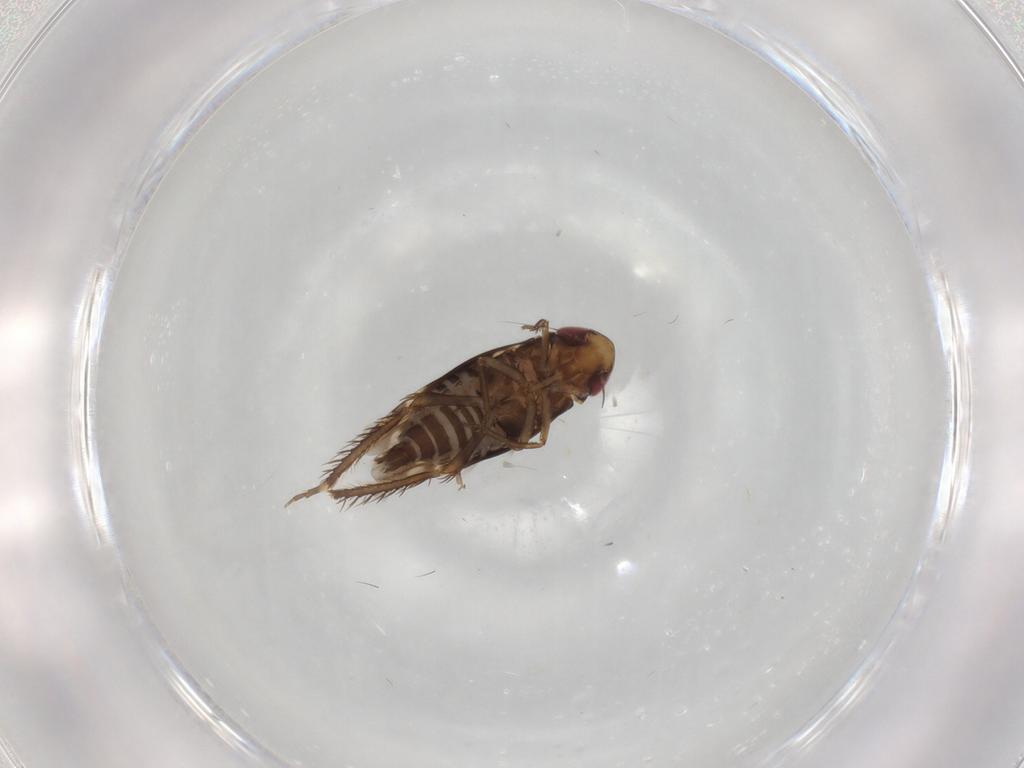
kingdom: Animalia
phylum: Arthropoda
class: Insecta
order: Hemiptera
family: Cicadellidae
